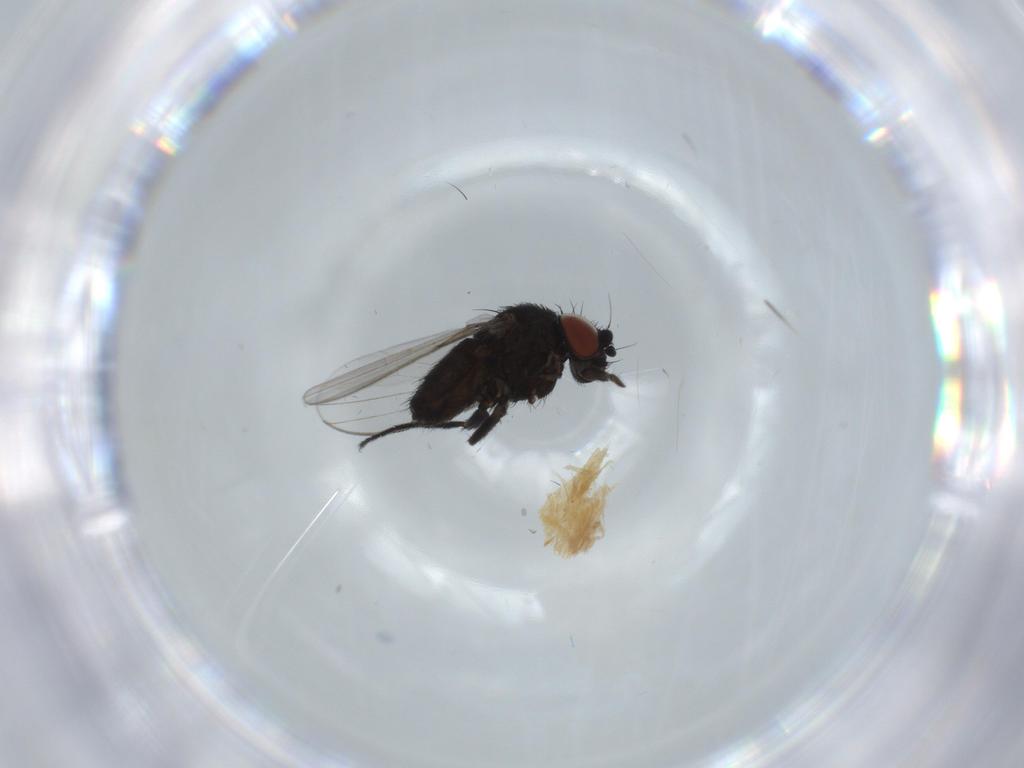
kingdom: Animalia
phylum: Arthropoda
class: Insecta
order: Diptera
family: Milichiidae
